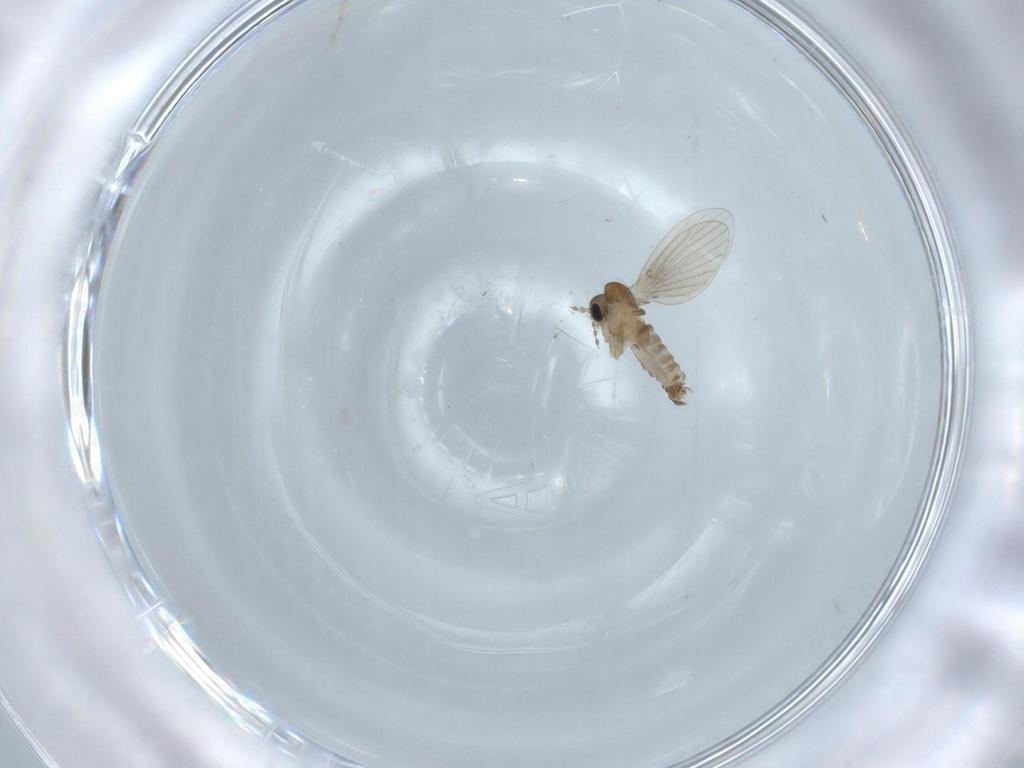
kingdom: Animalia
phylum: Arthropoda
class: Insecta
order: Diptera
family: Psychodidae
